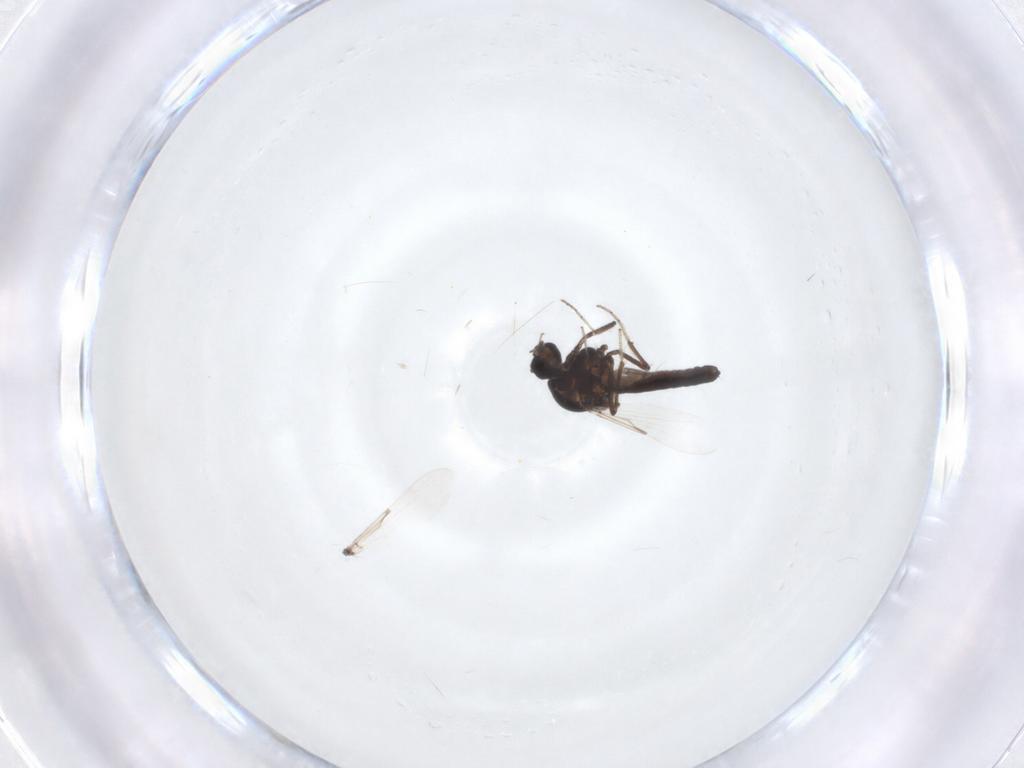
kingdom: Animalia
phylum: Arthropoda
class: Insecta
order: Diptera
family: Ceratopogonidae
